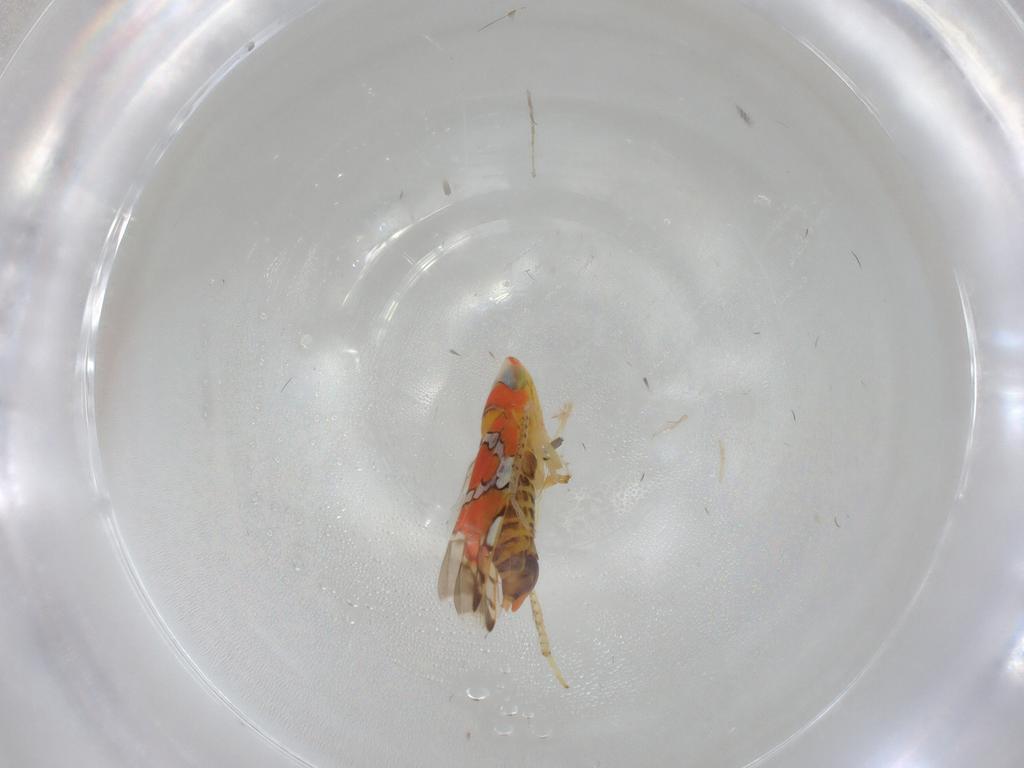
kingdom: Animalia
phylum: Arthropoda
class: Insecta
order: Hemiptera
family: Cicadellidae
